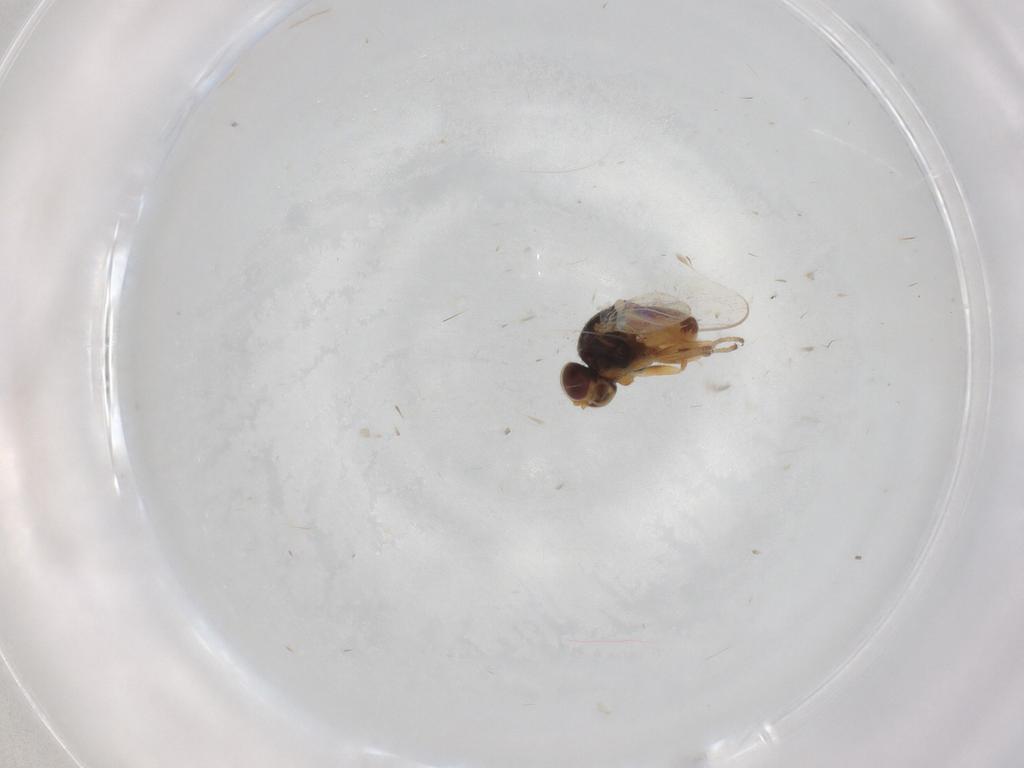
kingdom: Animalia
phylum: Arthropoda
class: Insecta
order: Diptera
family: Chloropidae
